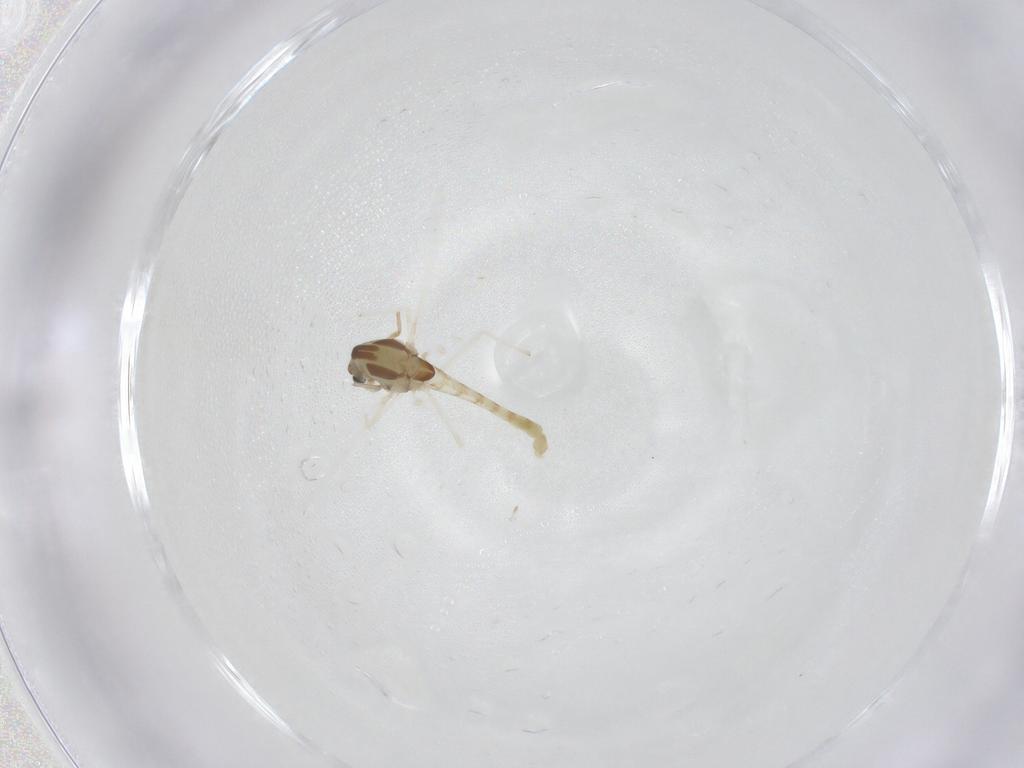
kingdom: Animalia
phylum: Arthropoda
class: Insecta
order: Diptera
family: Chironomidae
